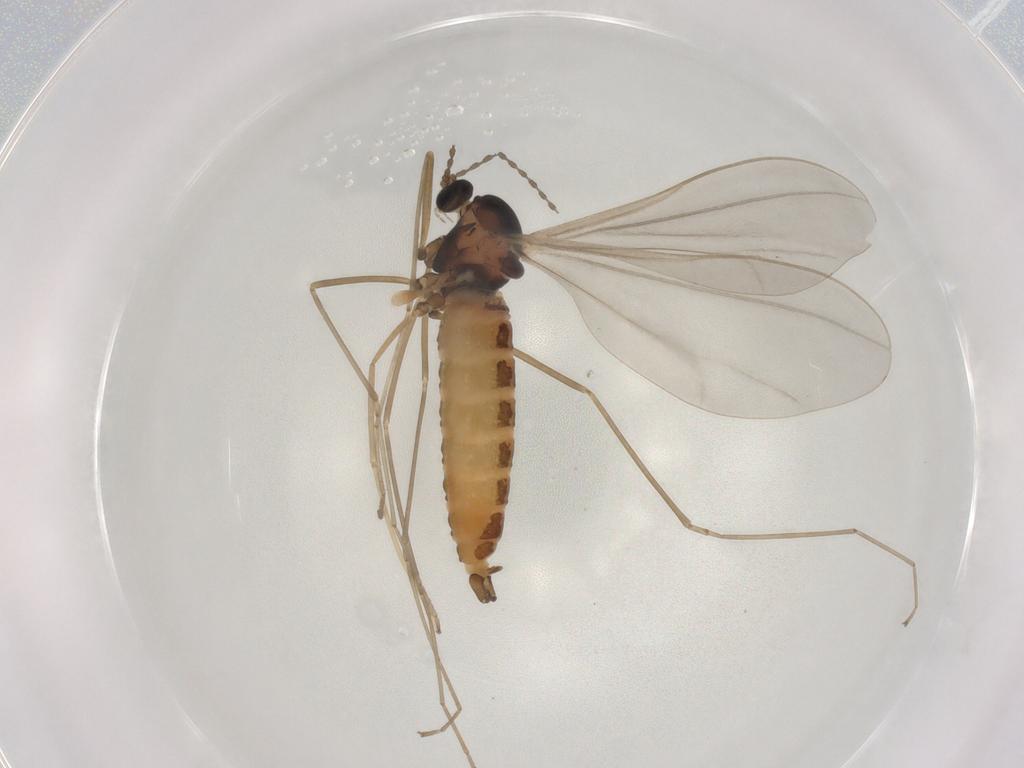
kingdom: Animalia
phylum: Arthropoda
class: Insecta
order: Diptera
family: Cecidomyiidae
